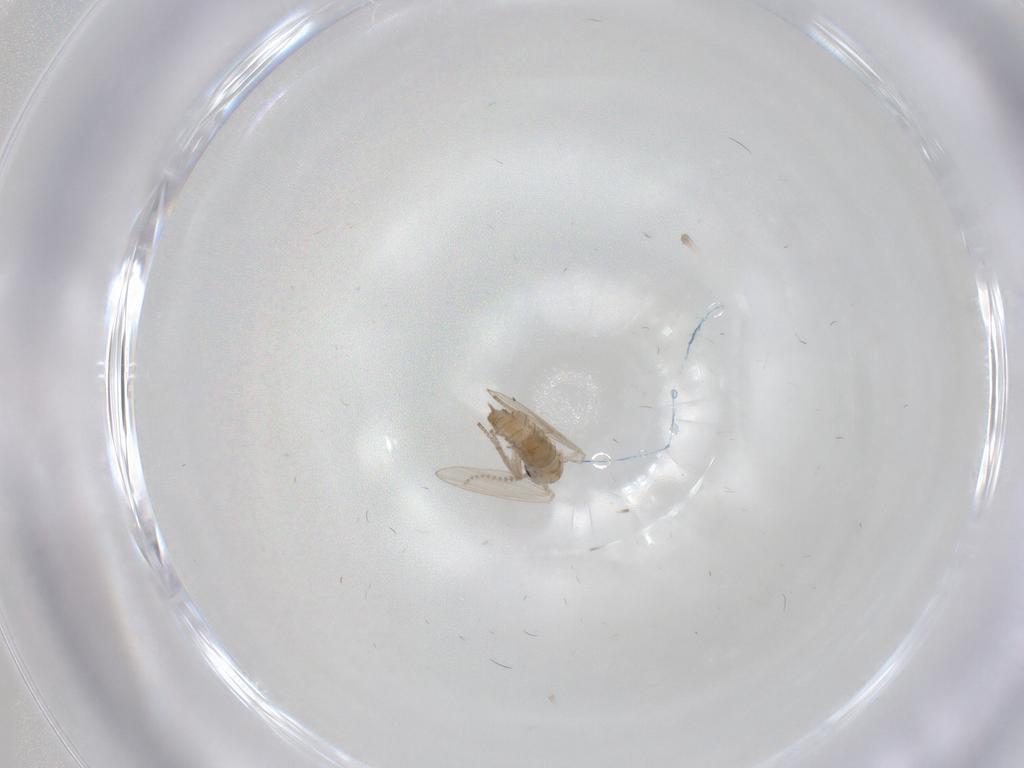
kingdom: Animalia
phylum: Arthropoda
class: Insecta
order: Diptera
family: Psychodidae
